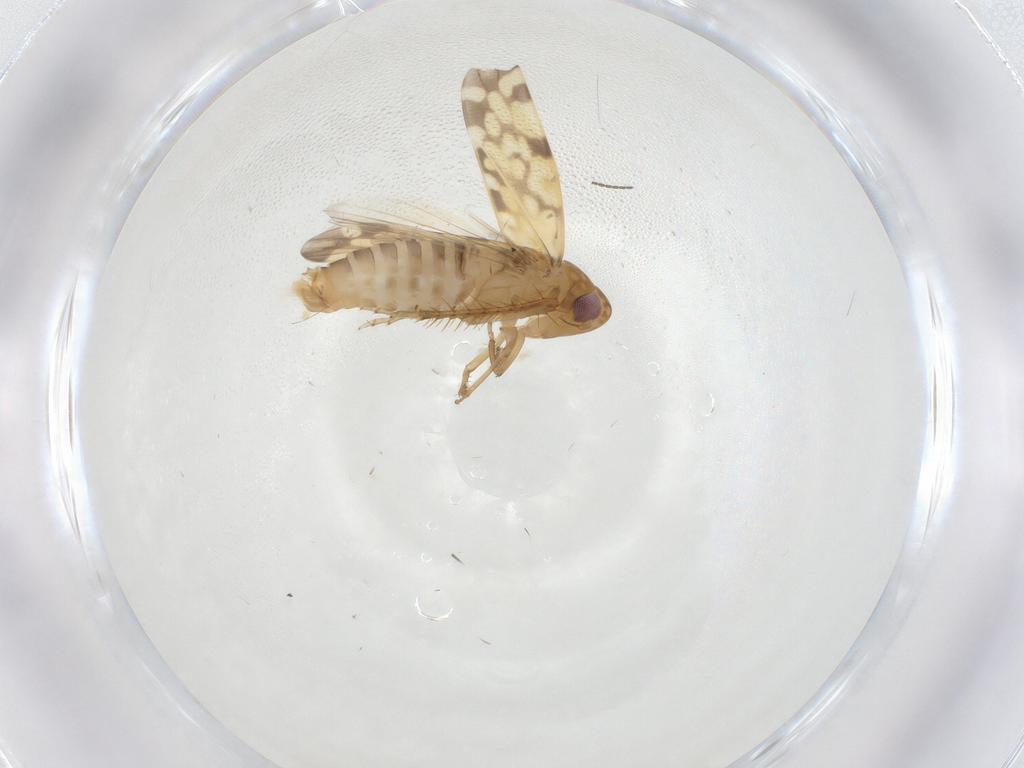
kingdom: Animalia
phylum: Arthropoda
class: Insecta
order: Hemiptera
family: Cicadellidae
